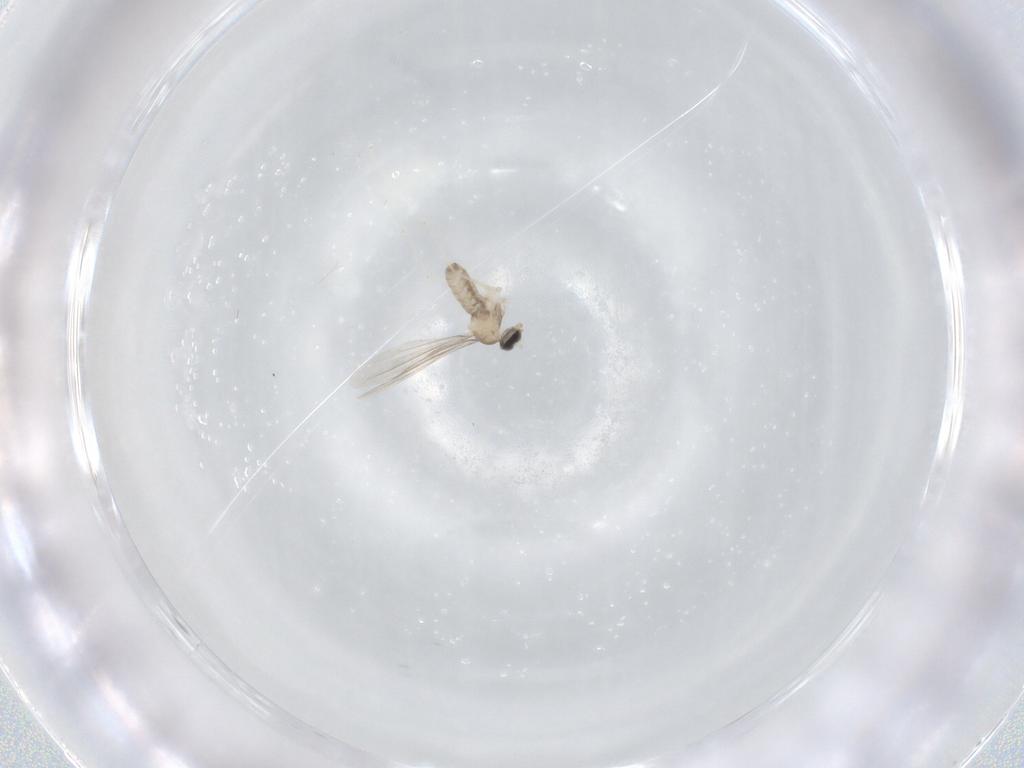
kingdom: Animalia
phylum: Arthropoda
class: Insecta
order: Diptera
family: Cecidomyiidae
